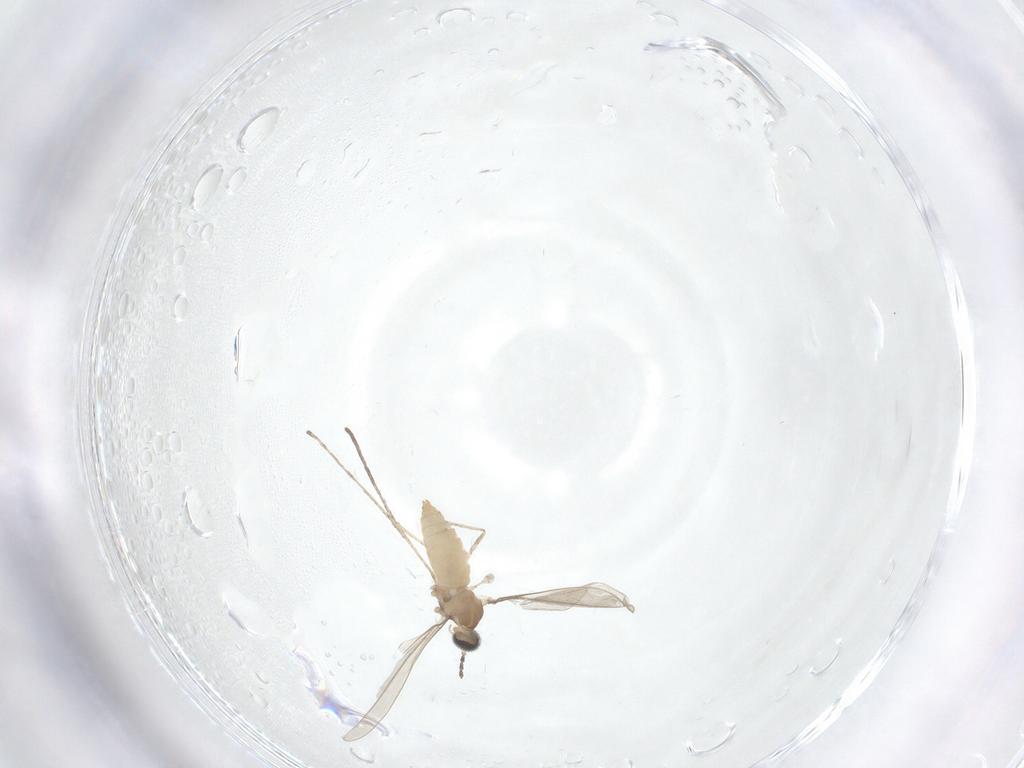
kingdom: Animalia
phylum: Arthropoda
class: Insecta
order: Diptera
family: Cecidomyiidae
